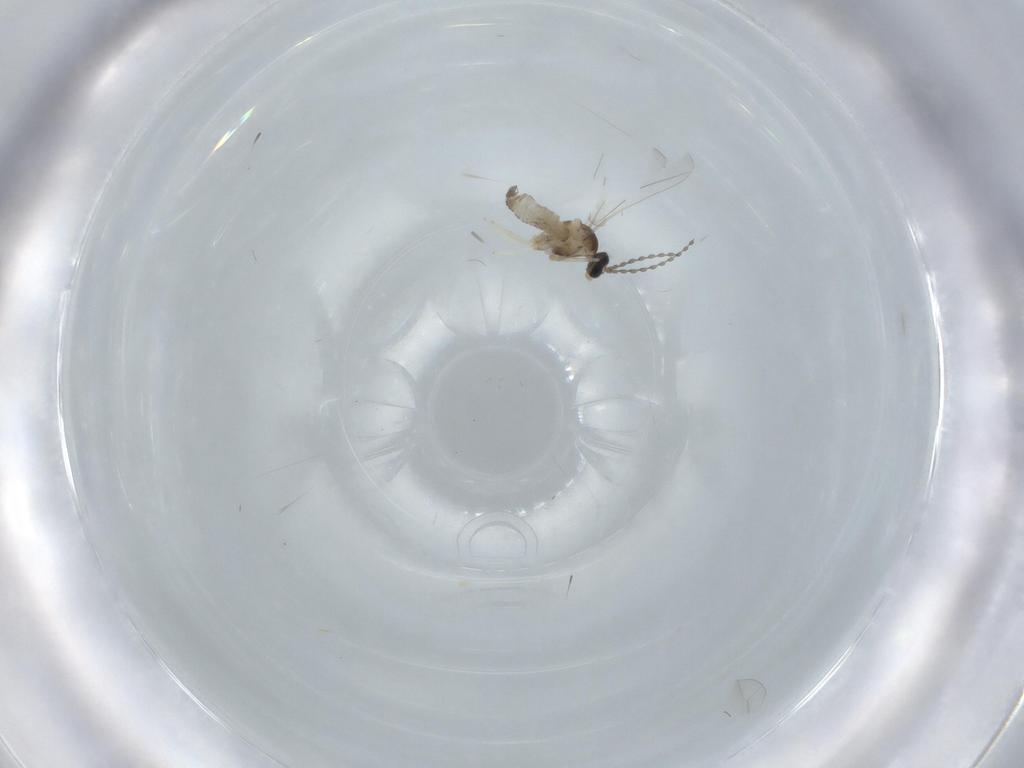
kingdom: Animalia
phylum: Arthropoda
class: Insecta
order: Diptera
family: Cecidomyiidae
